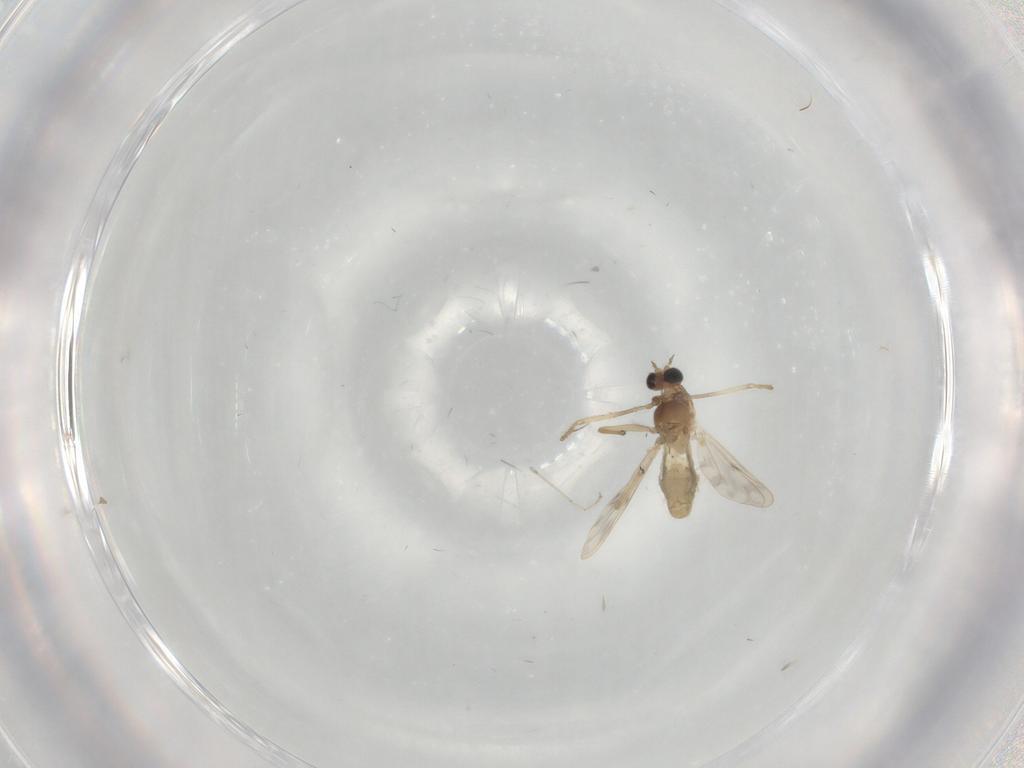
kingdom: Animalia
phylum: Arthropoda
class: Insecta
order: Diptera
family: Chironomidae
